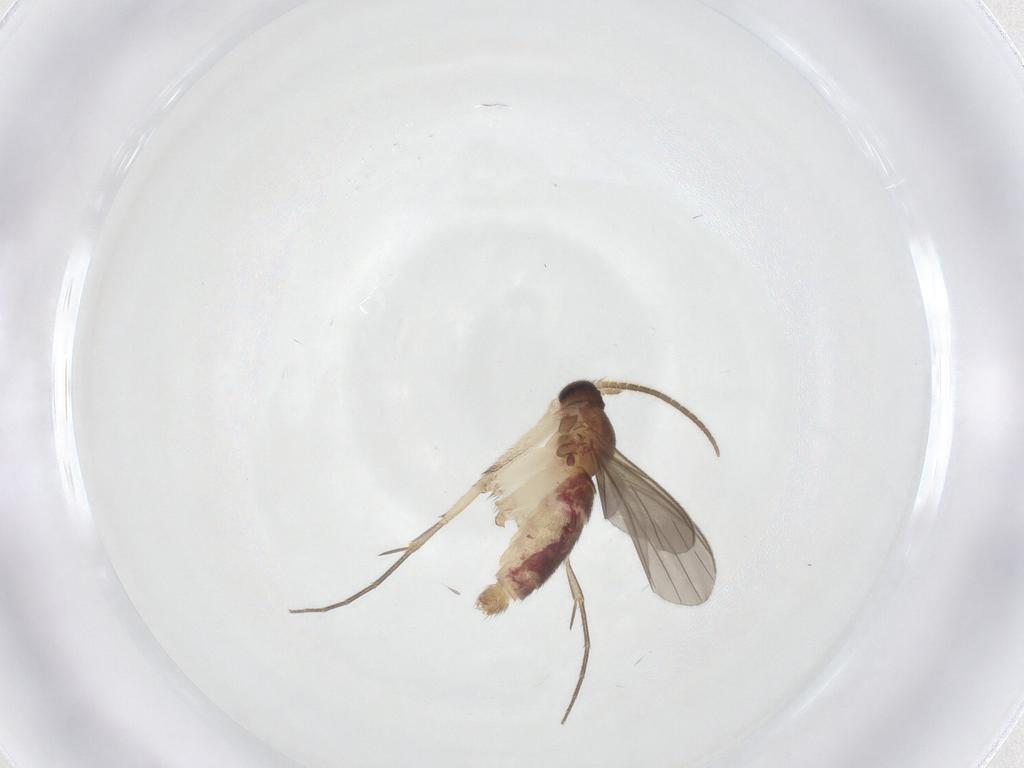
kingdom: Animalia
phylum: Arthropoda
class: Insecta
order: Diptera
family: Mycetophilidae
